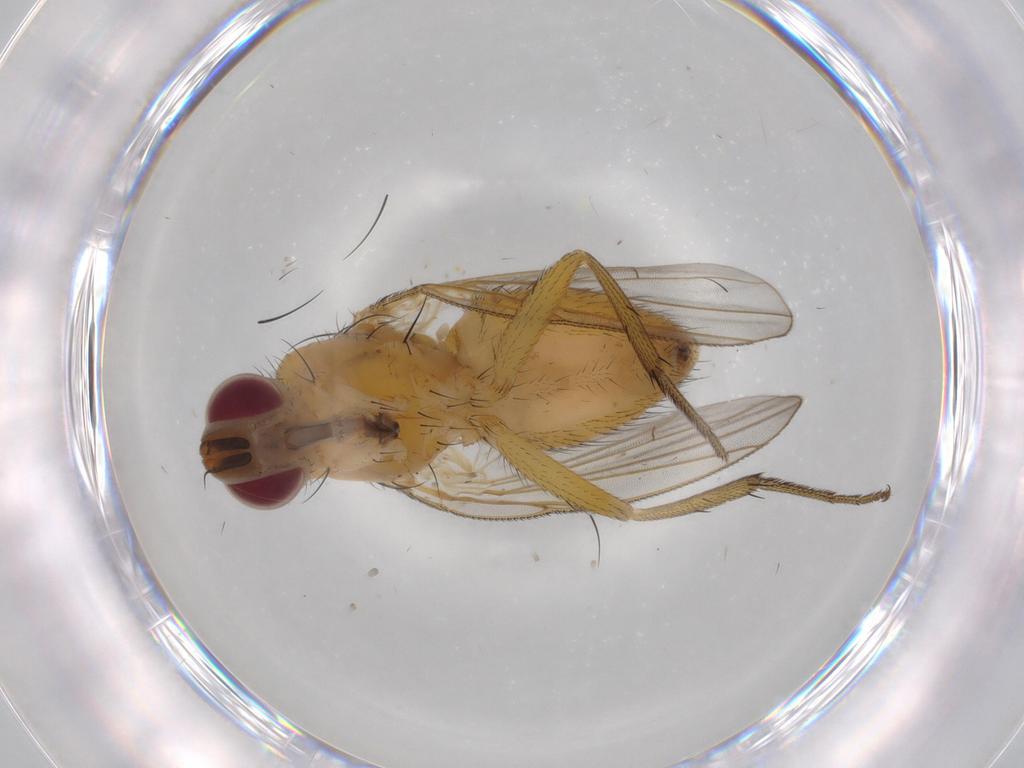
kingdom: Animalia
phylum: Arthropoda
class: Insecta
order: Diptera
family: Muscidae
